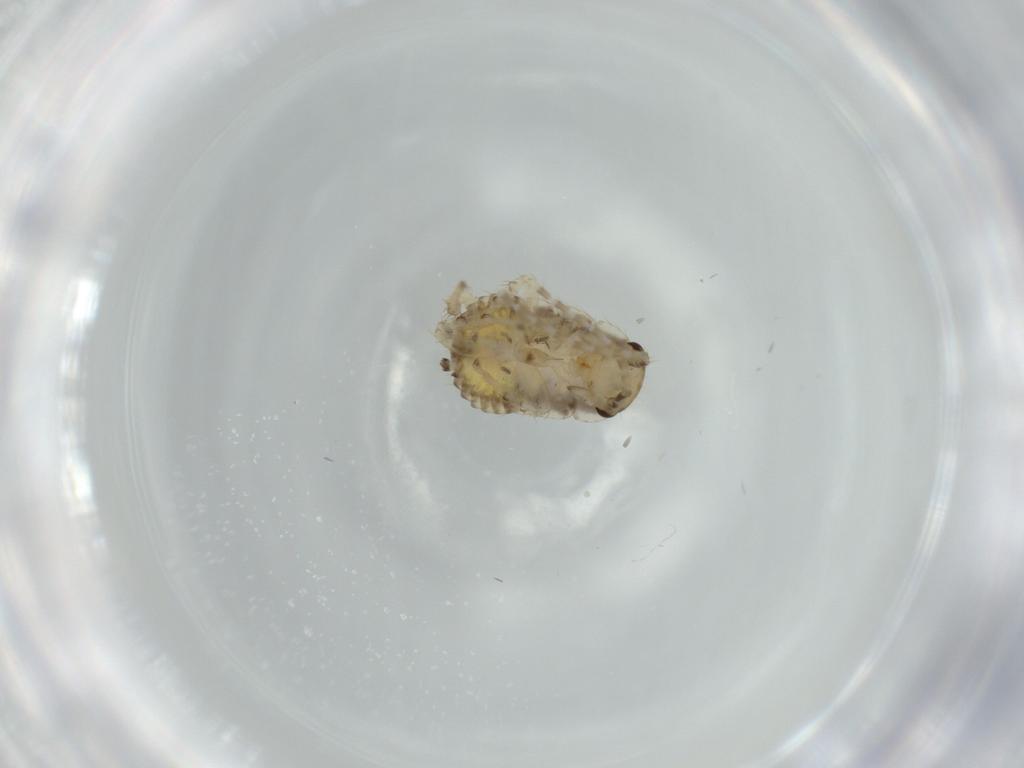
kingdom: Animalia
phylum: Arthropoda
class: Insecta
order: Blattodea
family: Ectobiidae
